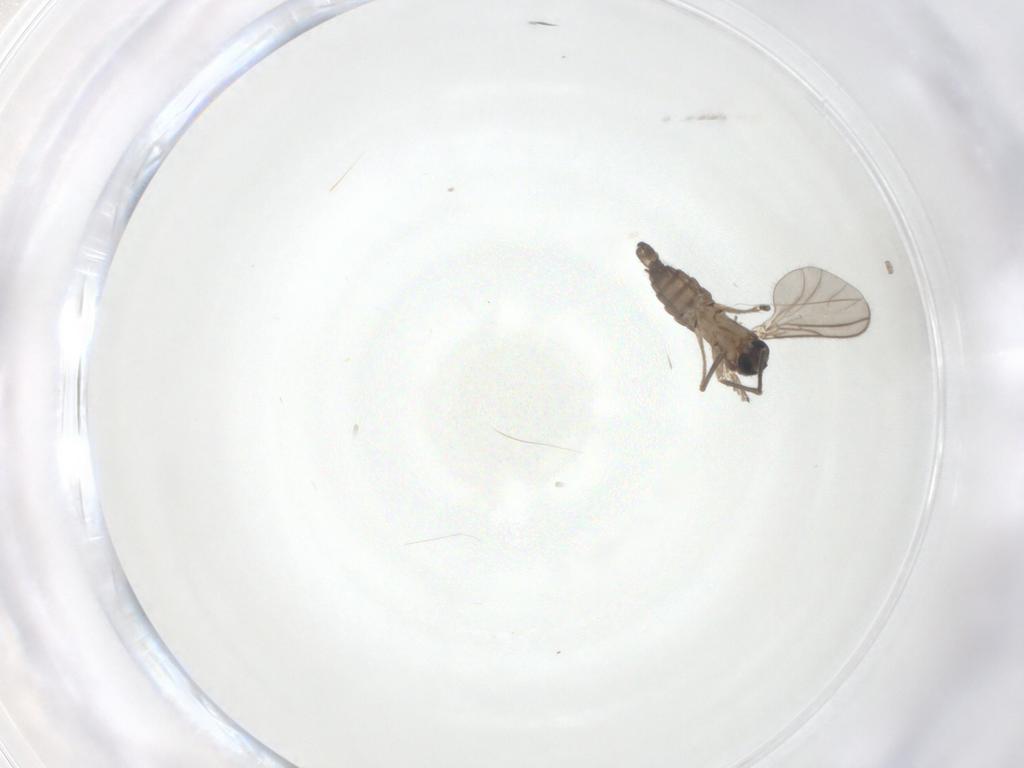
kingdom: Animalia
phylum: Arthropoda
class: Insecta
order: Diptera
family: Sciaridae
